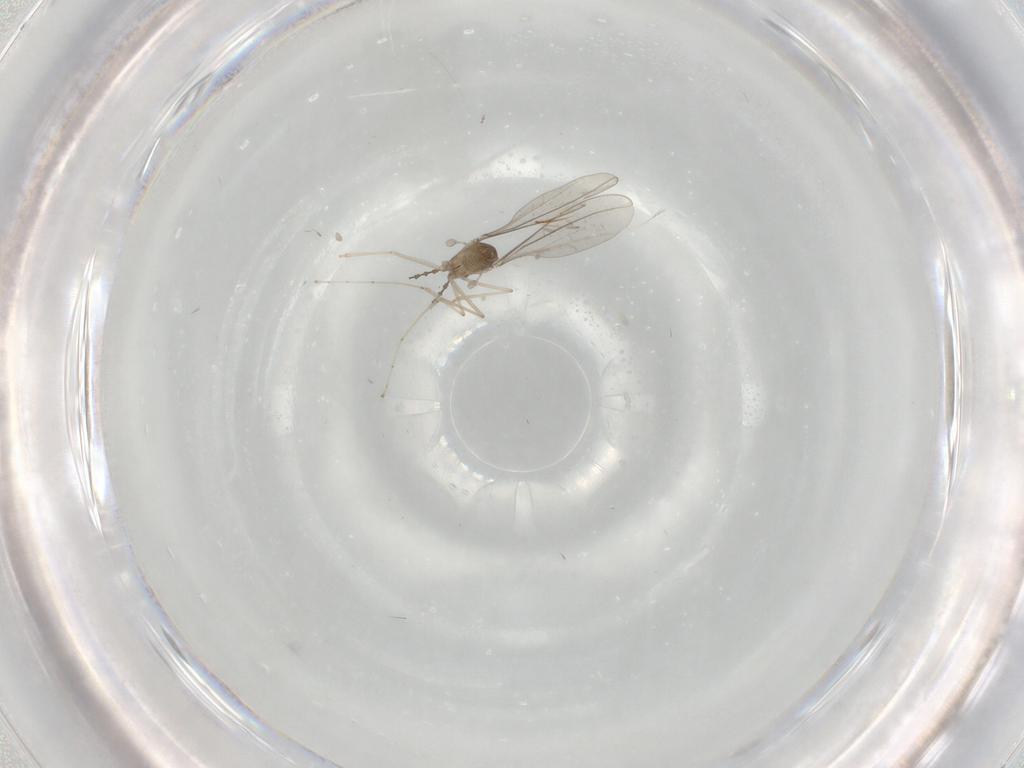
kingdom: Animalia
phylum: Arthropoda
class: Insecta
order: Diptera
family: Cecidomyiidae
